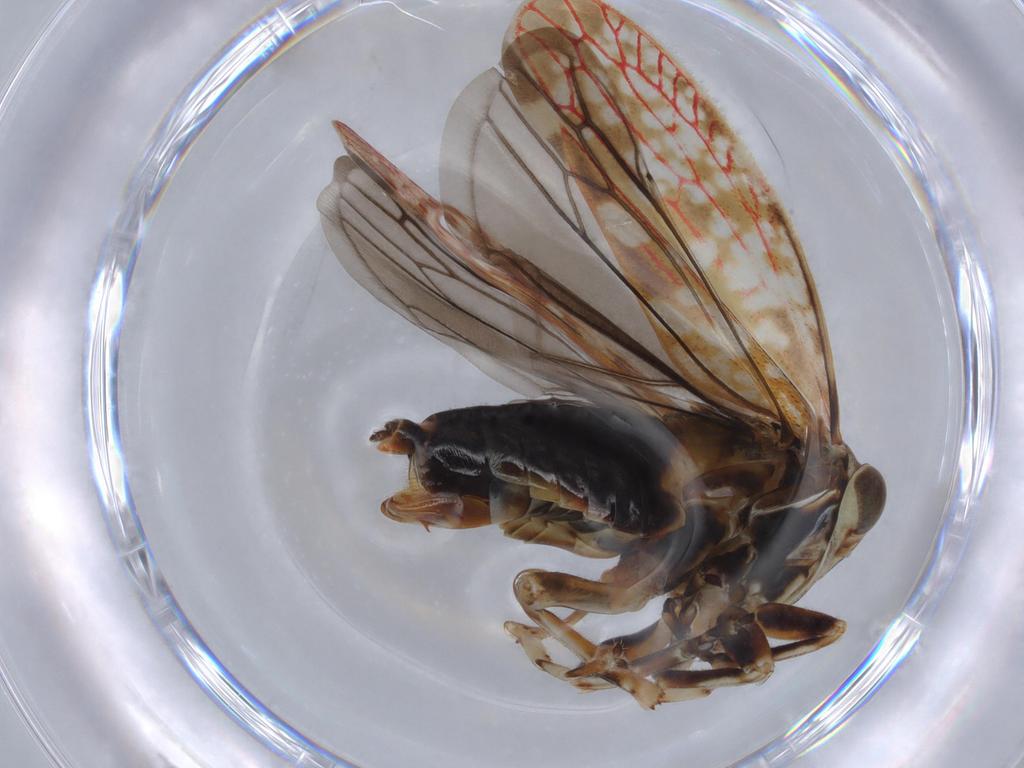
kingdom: Animalia
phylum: Arthropoda
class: Insecta
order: Hemiptera
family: Cicadellidae
